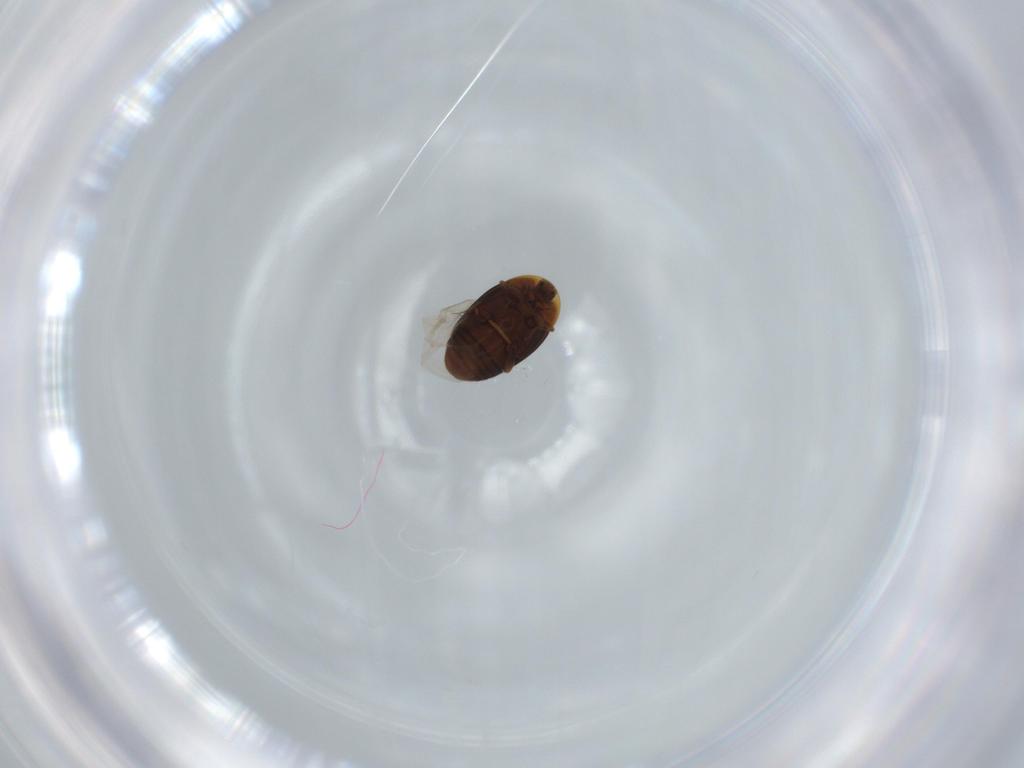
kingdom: Animalia
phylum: Arthropoda
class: Insecta
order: Coleoptera
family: Corylophidae
